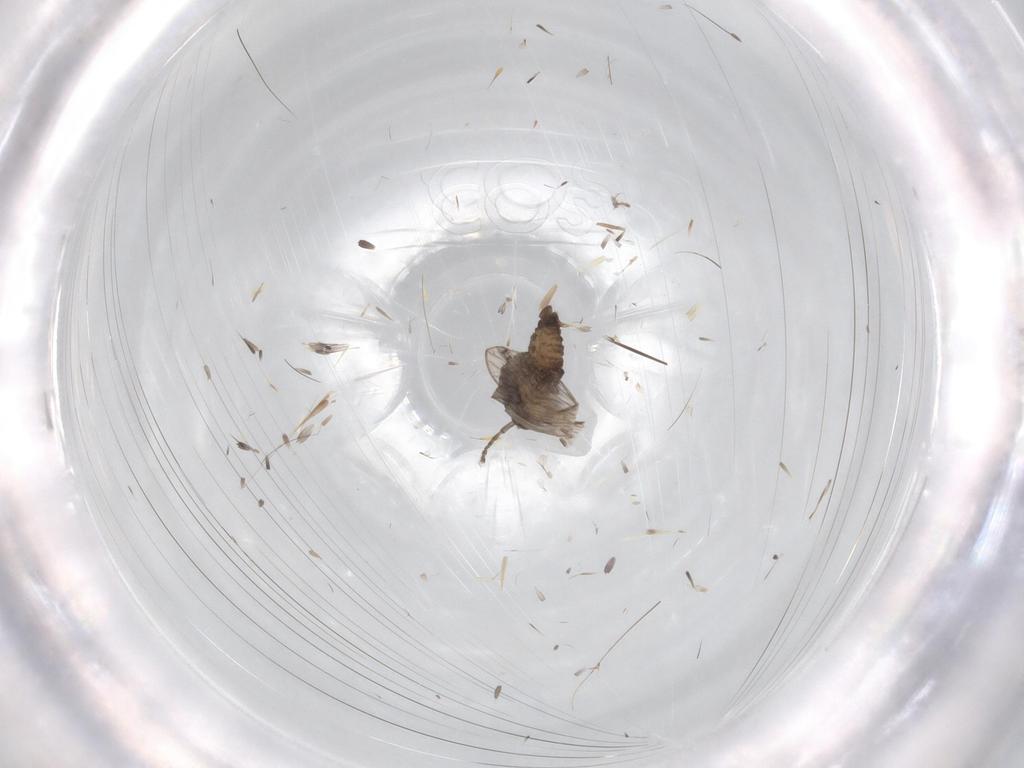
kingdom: Animalia
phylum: Arthropoda
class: Insecta
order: Diptera
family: Psychodidae
